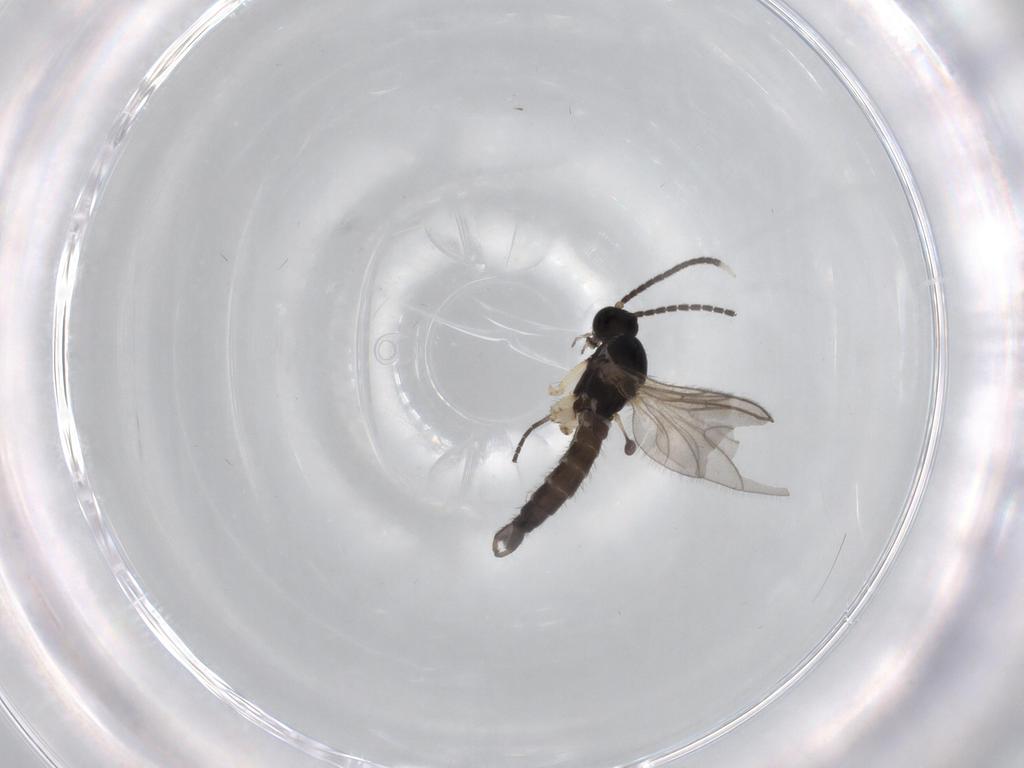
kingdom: Animalia
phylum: Arthropoda
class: Insecta
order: Diptera
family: Sciaridae
